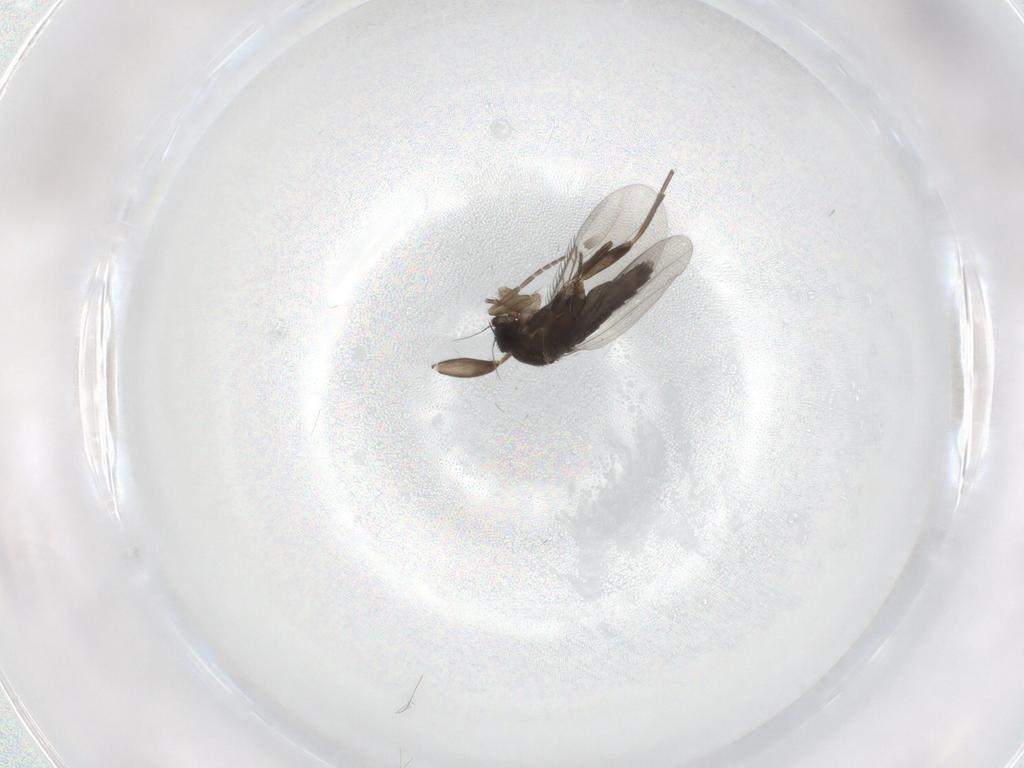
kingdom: Animalia
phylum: Arthropoda
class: Insecta
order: Diptera
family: Phoridae
